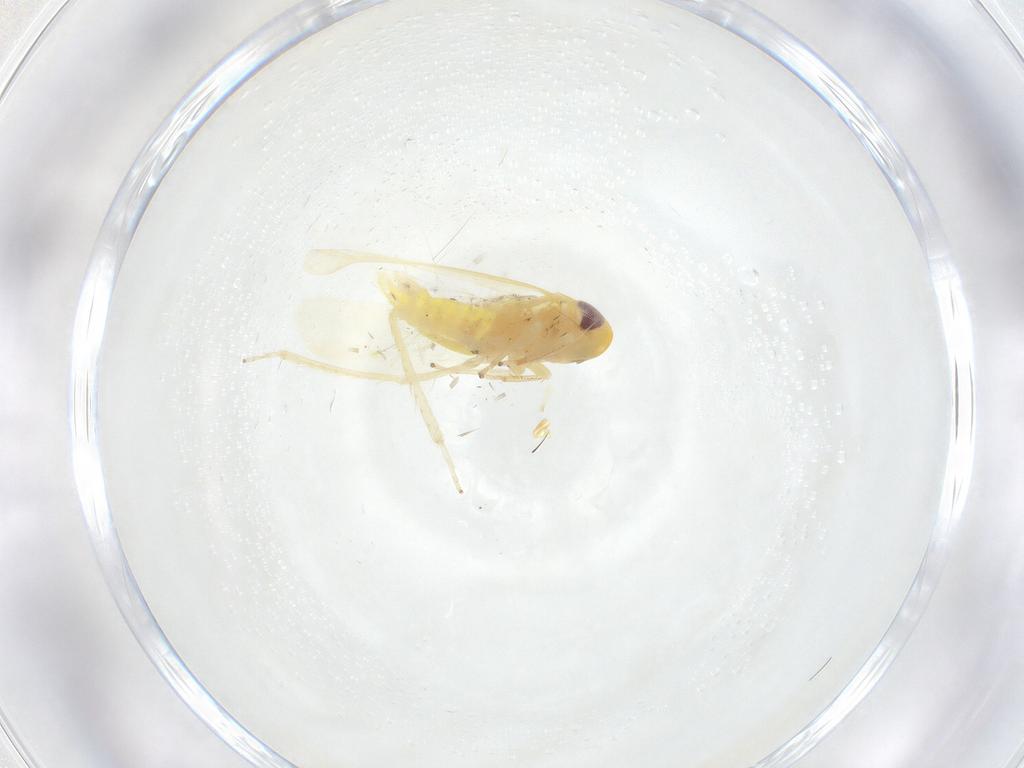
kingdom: Animalia
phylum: Arthropoda
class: Insecta
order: Hemiptera
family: Cicadellidae
